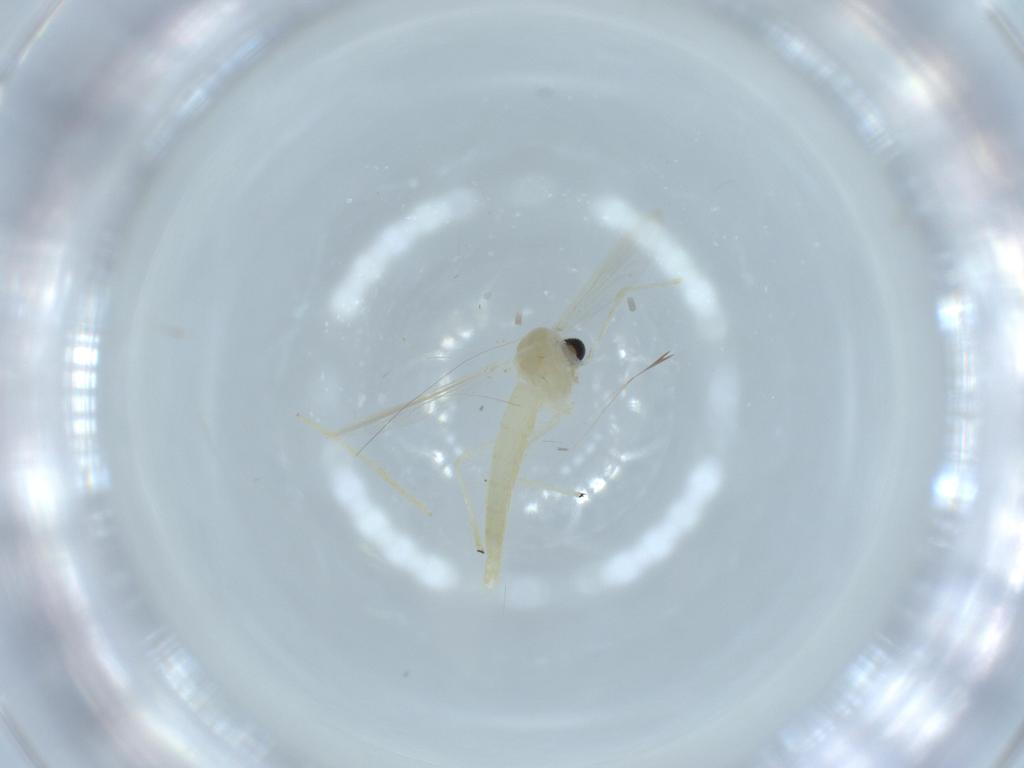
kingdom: Animalia
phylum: Arthropoda
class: Insecta
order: Diptera
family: Chironomidae
